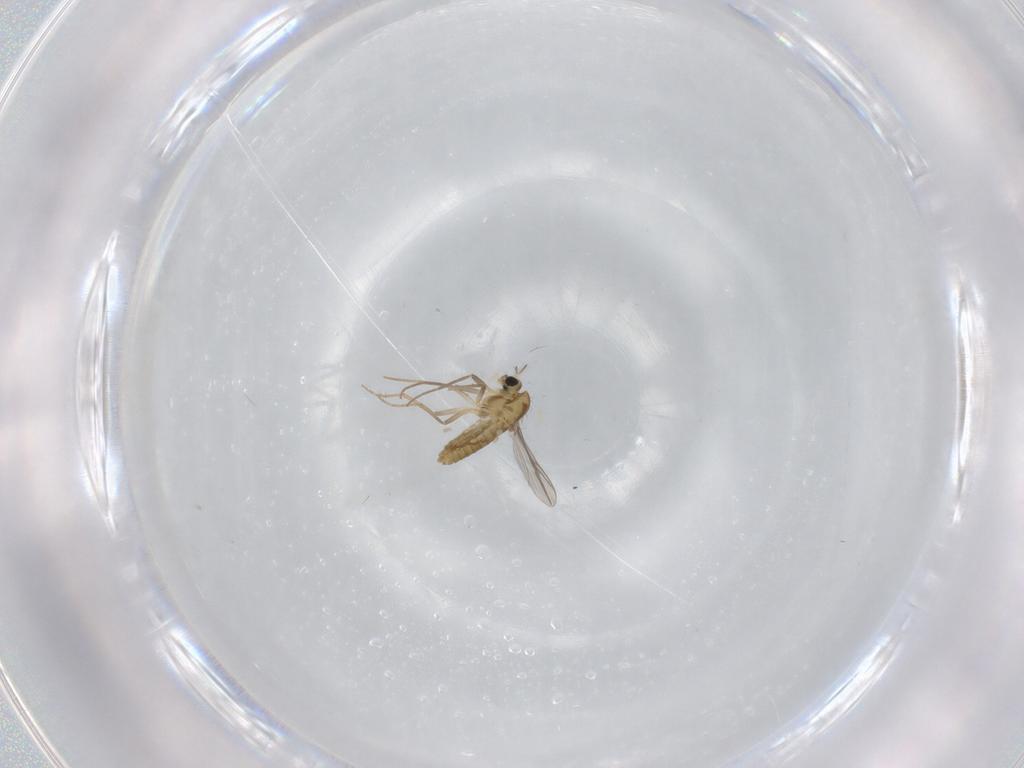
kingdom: Animalia
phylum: Arthropoda
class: Insecta
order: Diptera
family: Chironomidae
